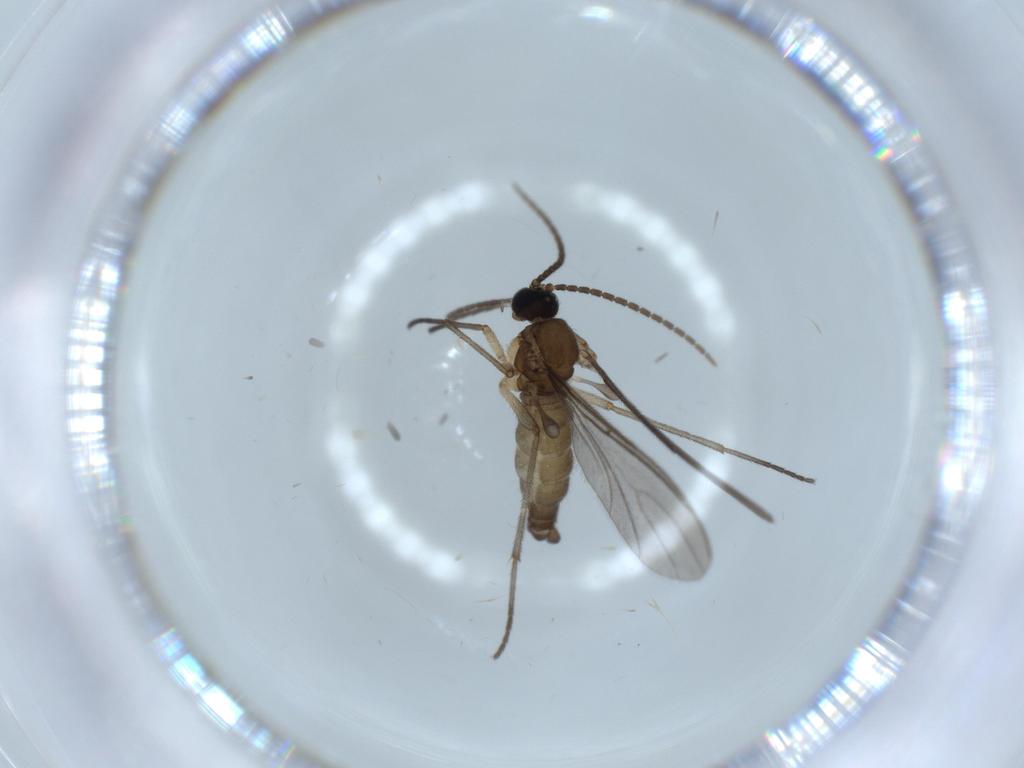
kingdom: Animalia
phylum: Arthropoda
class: Insecta
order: Diptera
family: Sciaridae
